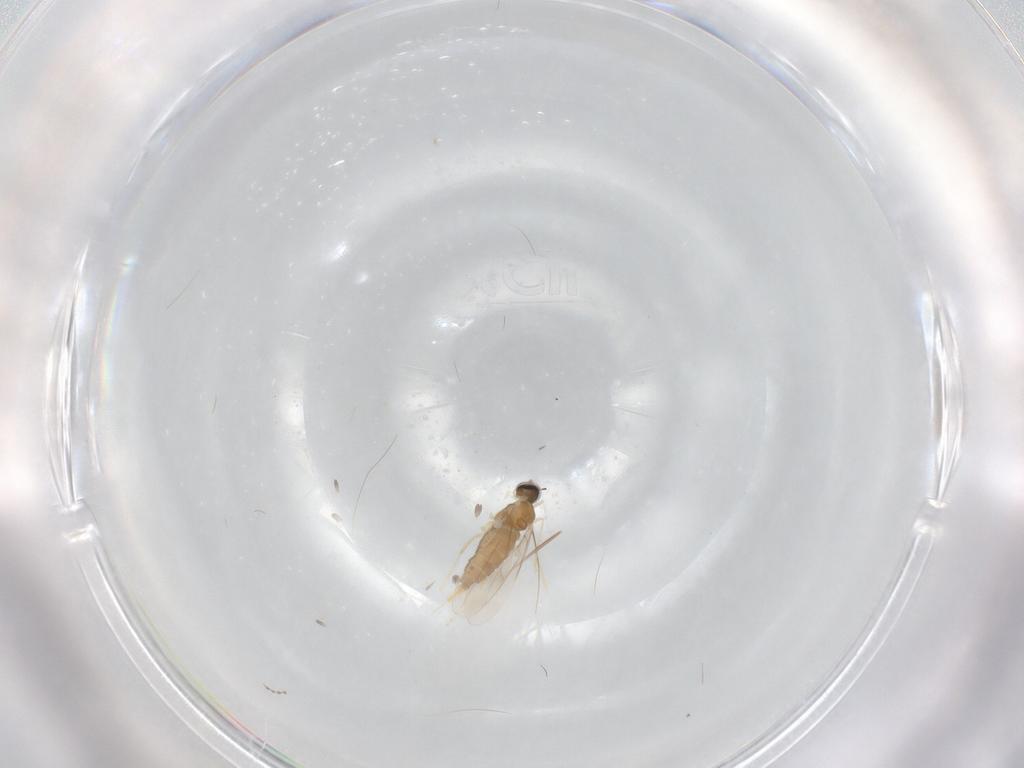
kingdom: Animalia
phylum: Arthropoda
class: Insecta
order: Diptera
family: Cecidomyiidae
